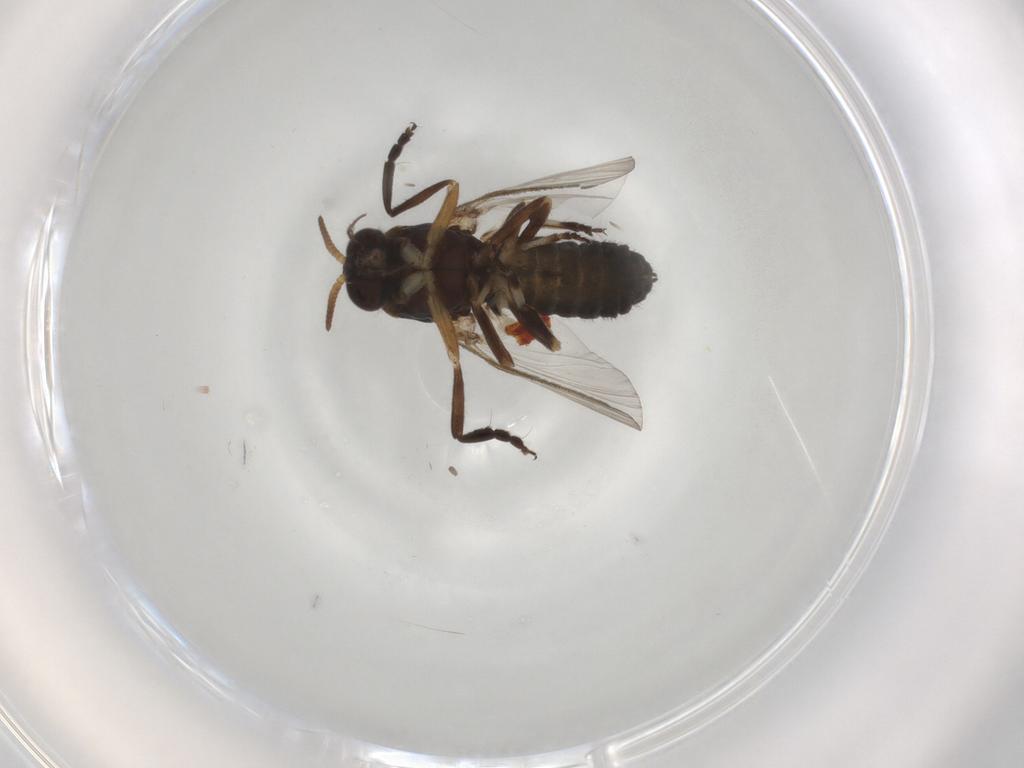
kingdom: Animalia
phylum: Arthropoda
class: Insecta
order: Diptera
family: Simuliidae
